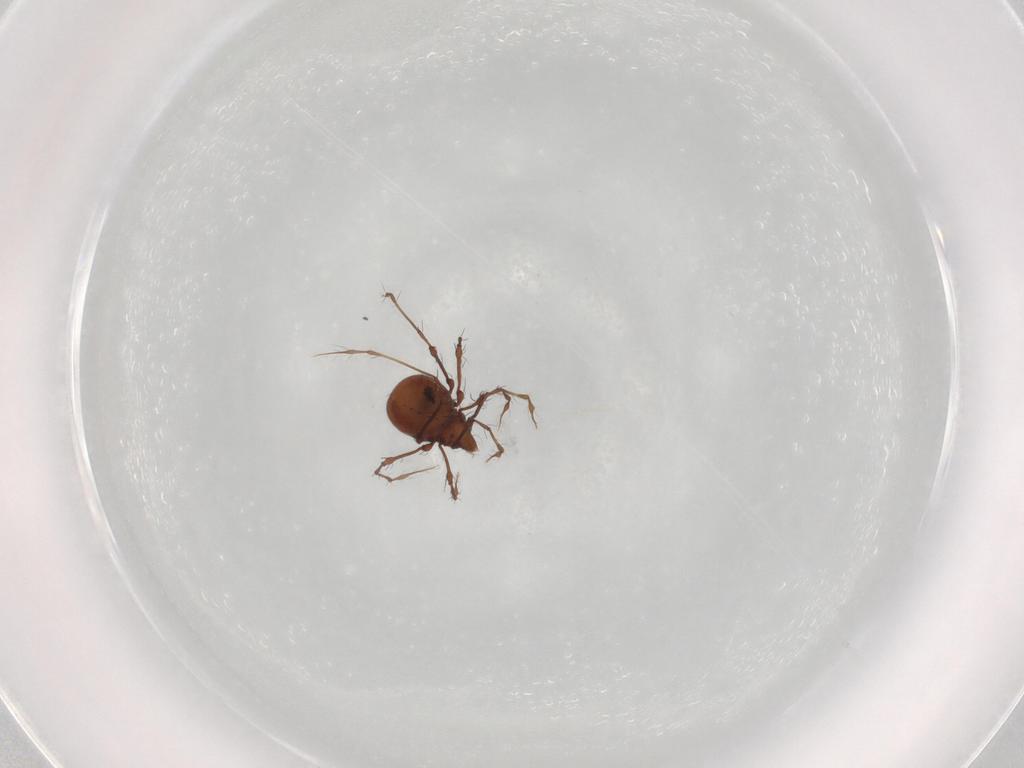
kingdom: Animalia
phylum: Arthropoda
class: Arachnida
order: Sarcoptiformes
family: Damaeidae
